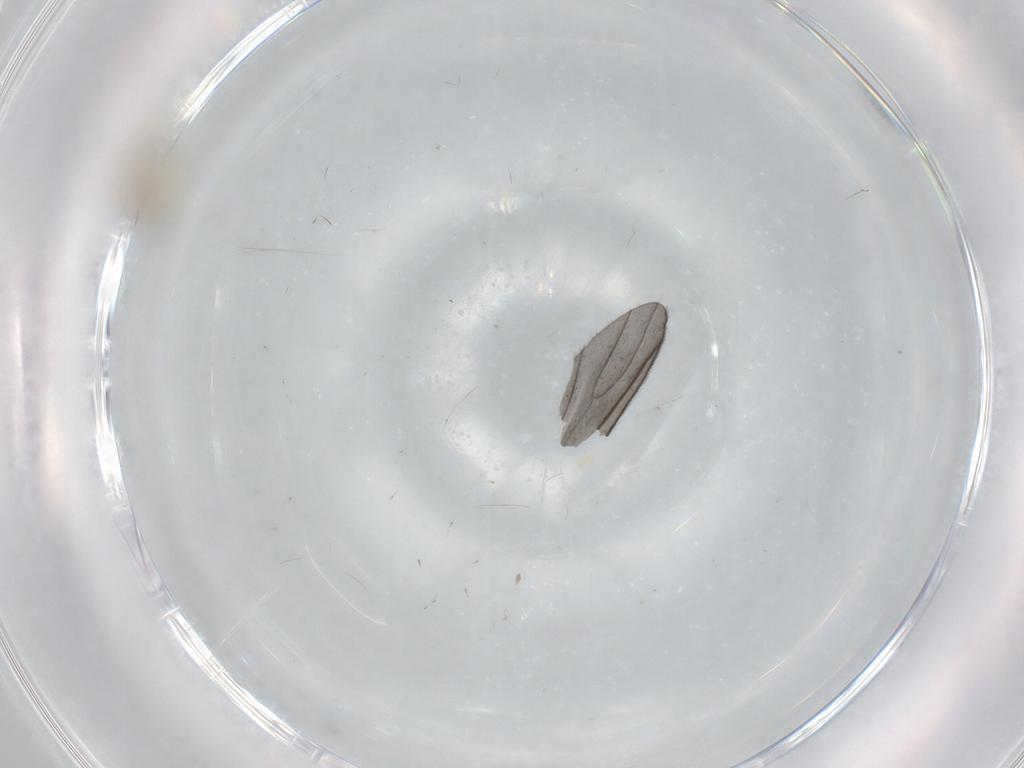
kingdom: Animalia
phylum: Arthropoda
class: Insecta
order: Diptera
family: Cecidomyiidae
